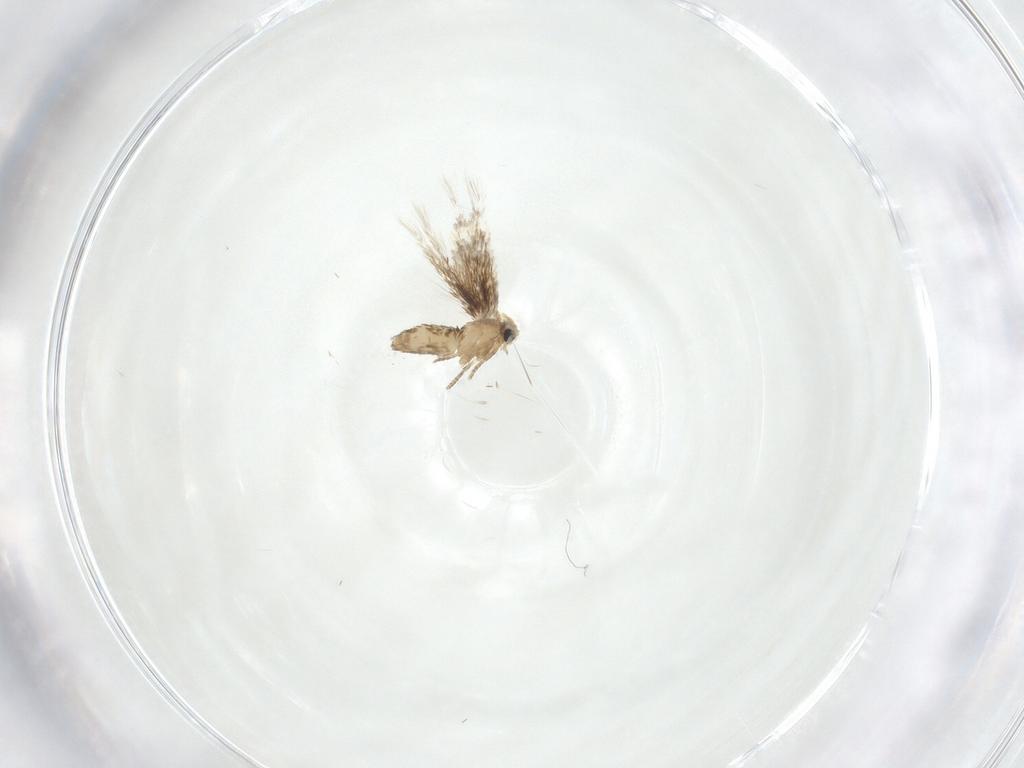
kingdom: Animalia
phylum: Arthropoda
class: Insecta
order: Lepidoptera
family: Nepticulidae
